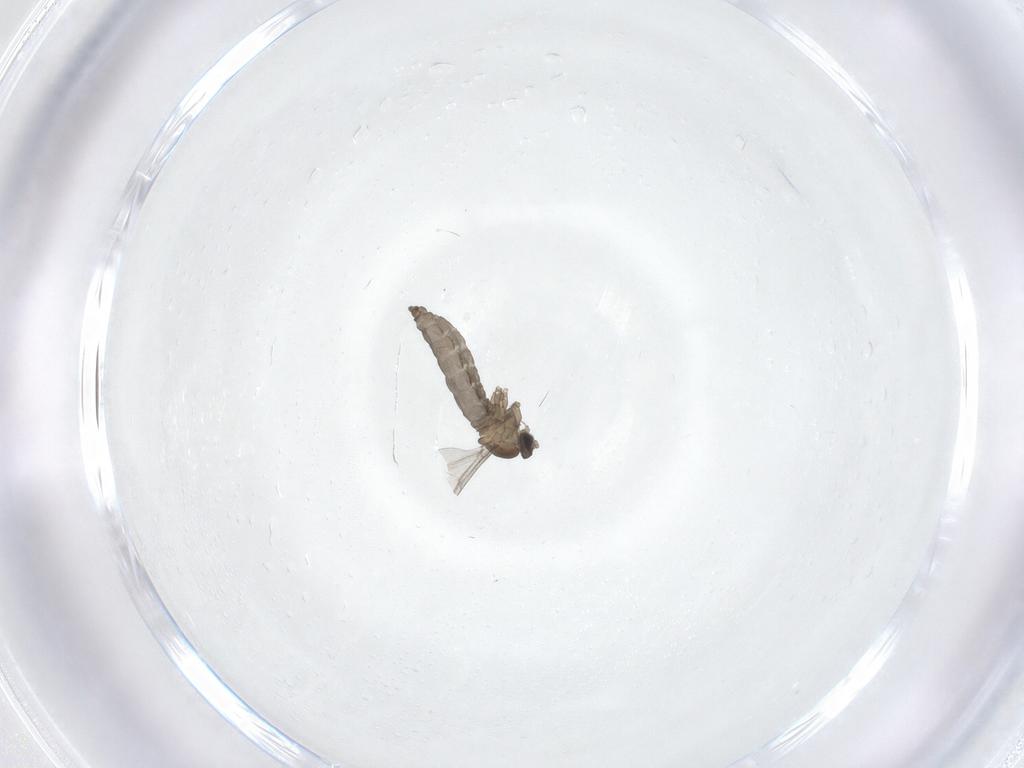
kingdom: Animalia
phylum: Arthropoda
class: Insecta
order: Diptera
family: Cecidomyiidae
